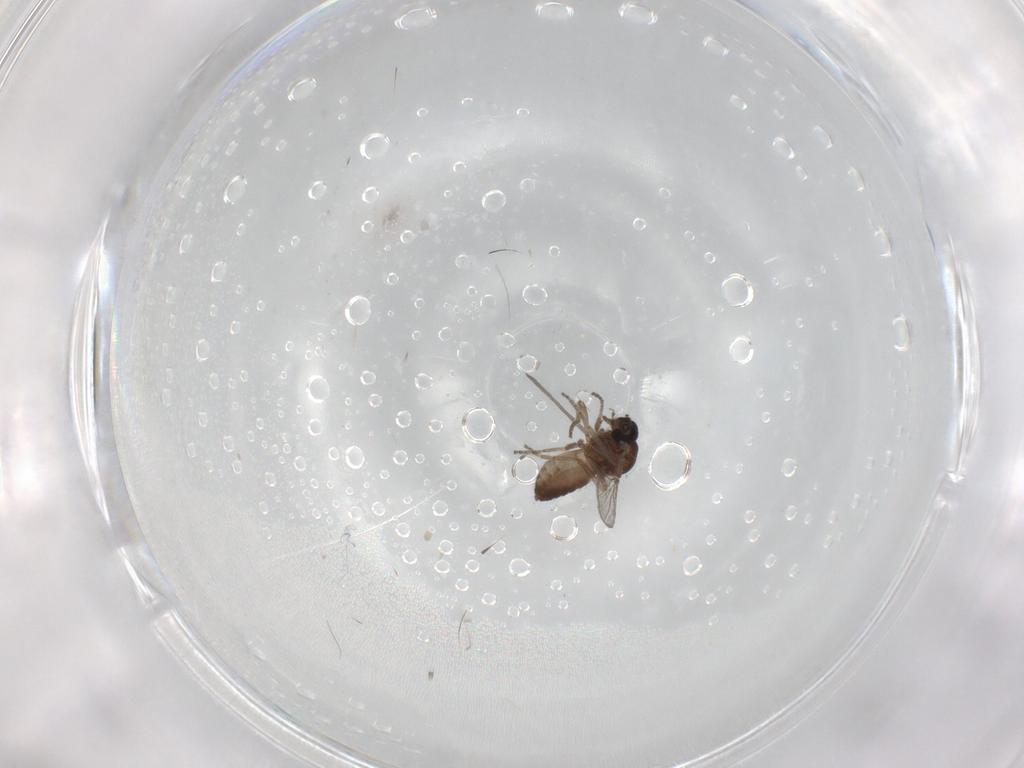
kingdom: Animalia
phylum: Arthropoda
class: Insecta
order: Diptera
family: Ceratopogonidae
